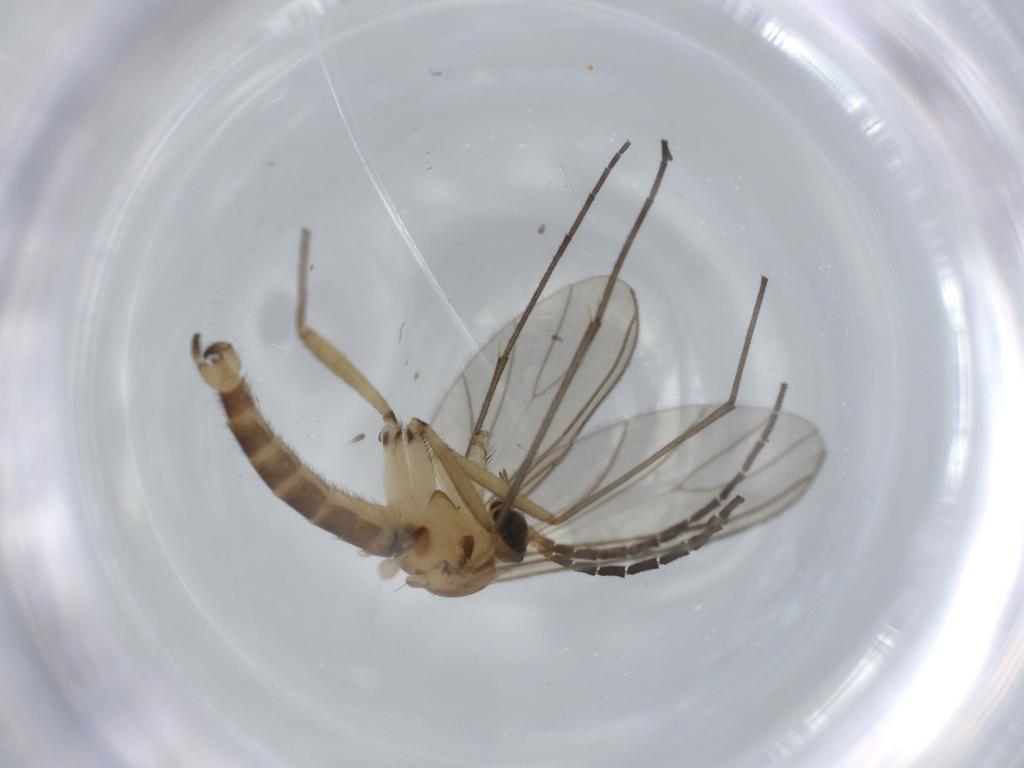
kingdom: Animalia
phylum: Arthropoda
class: Insecta
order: Diptera
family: Sciaridae
